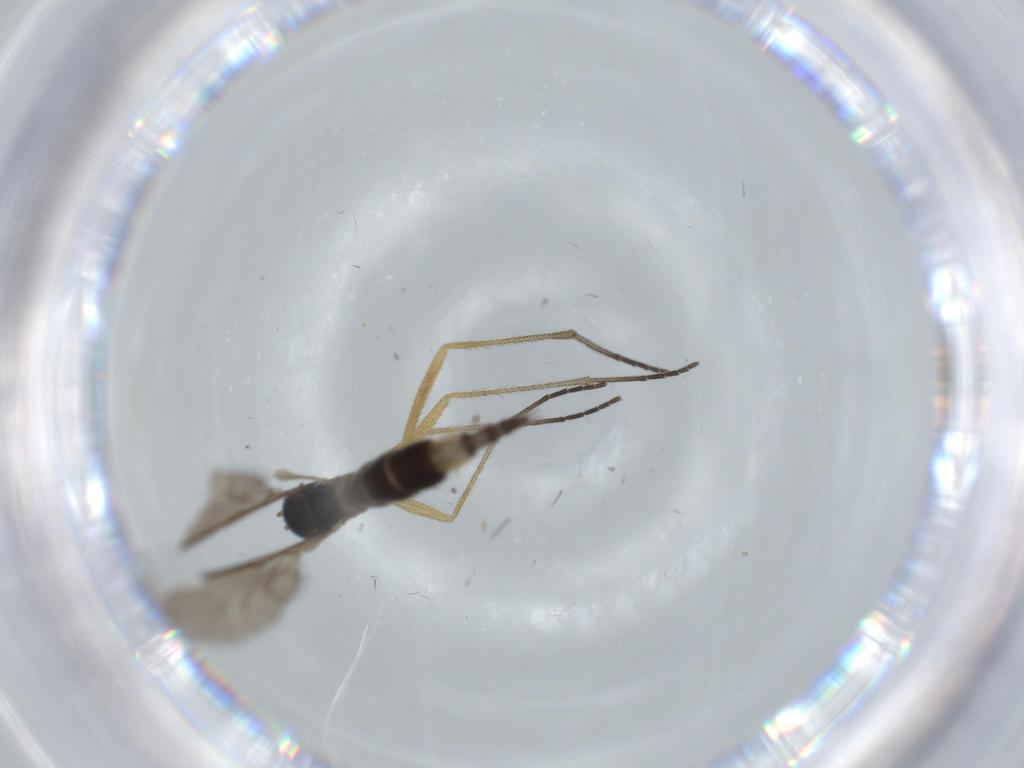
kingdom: Animalia
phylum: Arthropoda
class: Insecta
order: Diptera
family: Sciaridae
